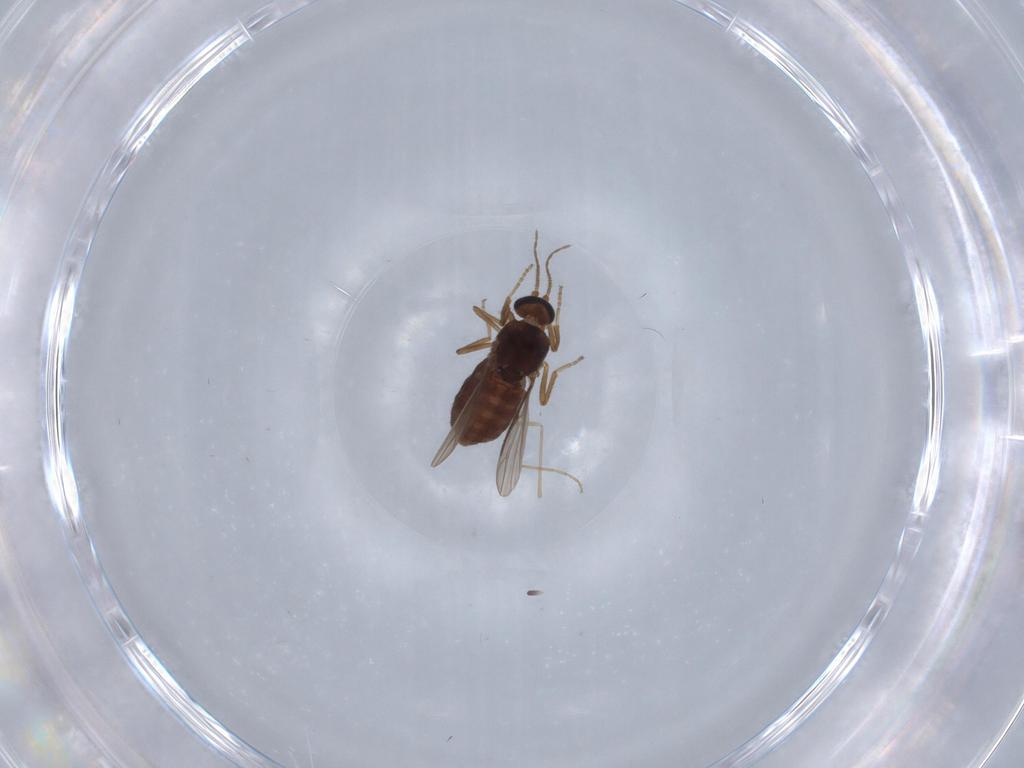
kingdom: Animalia
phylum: Arthropoda
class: Insecta
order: Diptera
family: Ceratopogonidae
